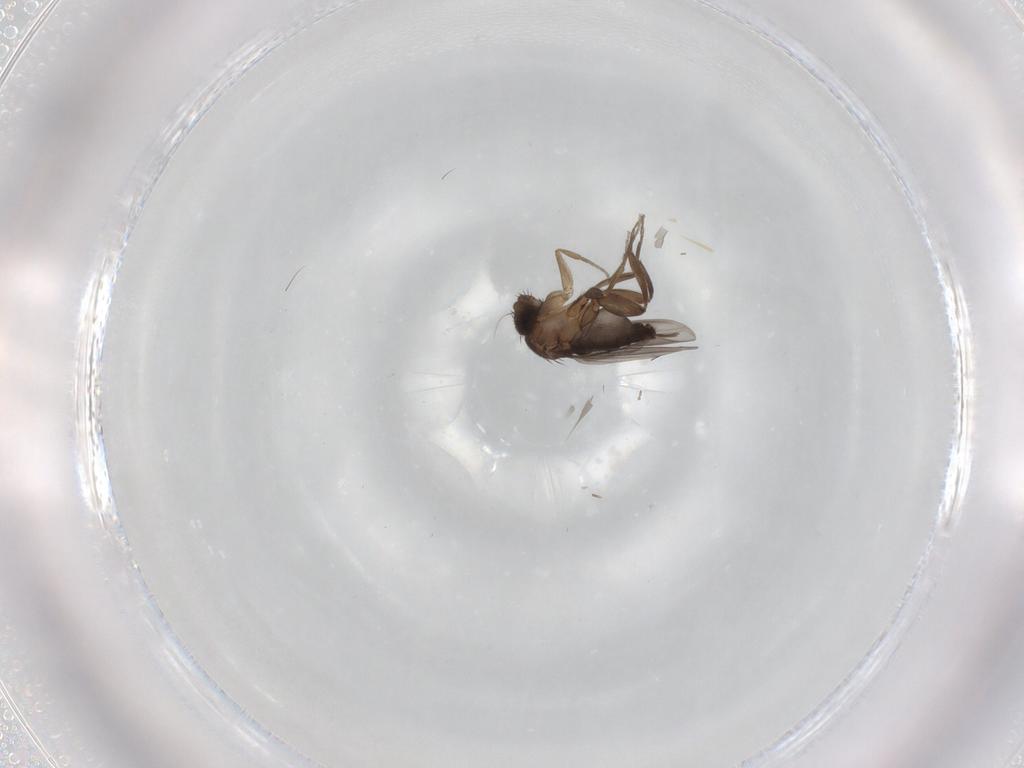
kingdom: Animalia
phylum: Arthropoda
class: Insecta
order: Diptera
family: Phoridae
